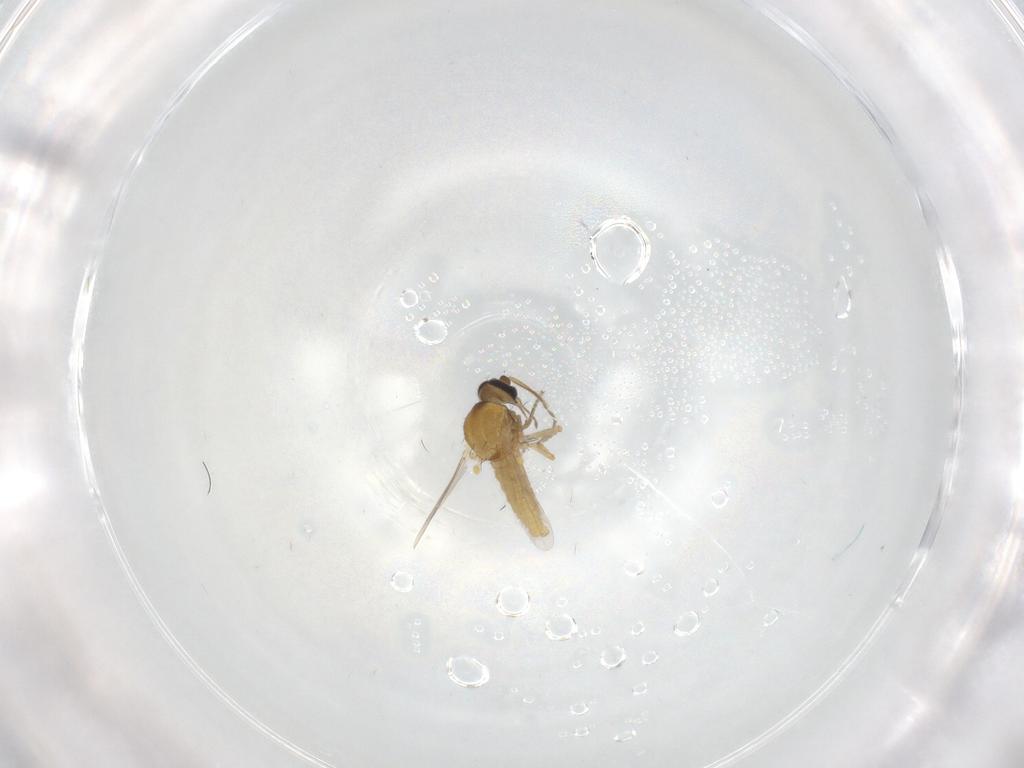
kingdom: Animalia
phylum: Arthropoda
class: Insecta
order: Diptera
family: Ceratopogonidae
